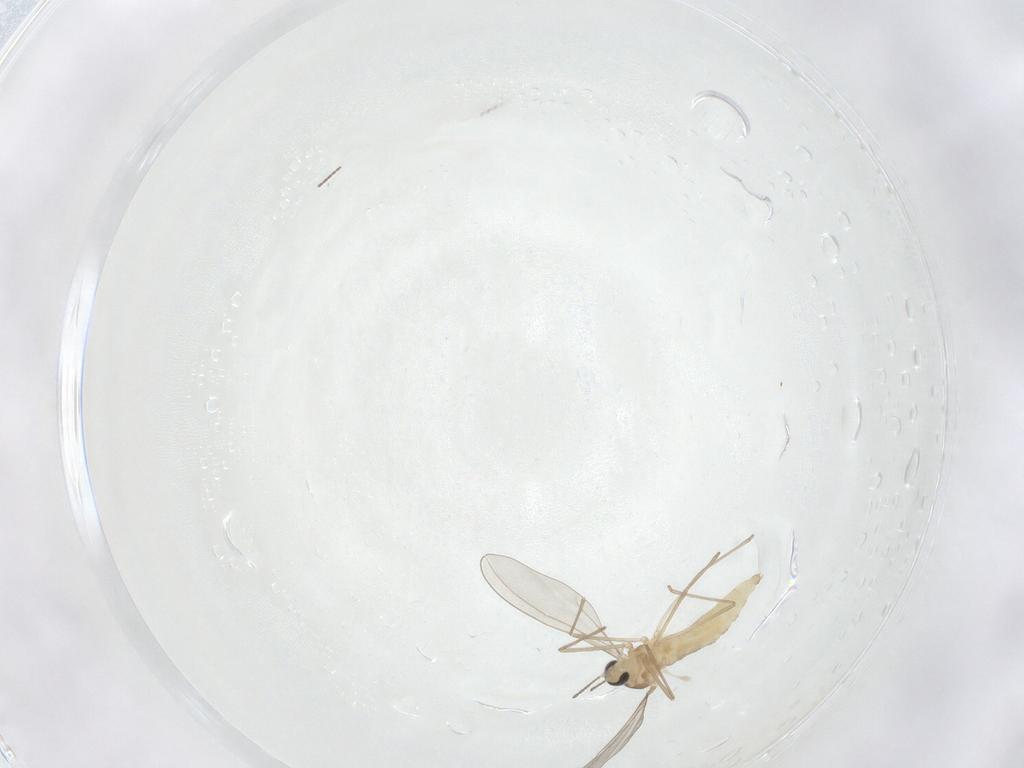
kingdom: Animalia
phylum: Arthropoda
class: Insecta
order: Diptera
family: Cecidomyiidae
